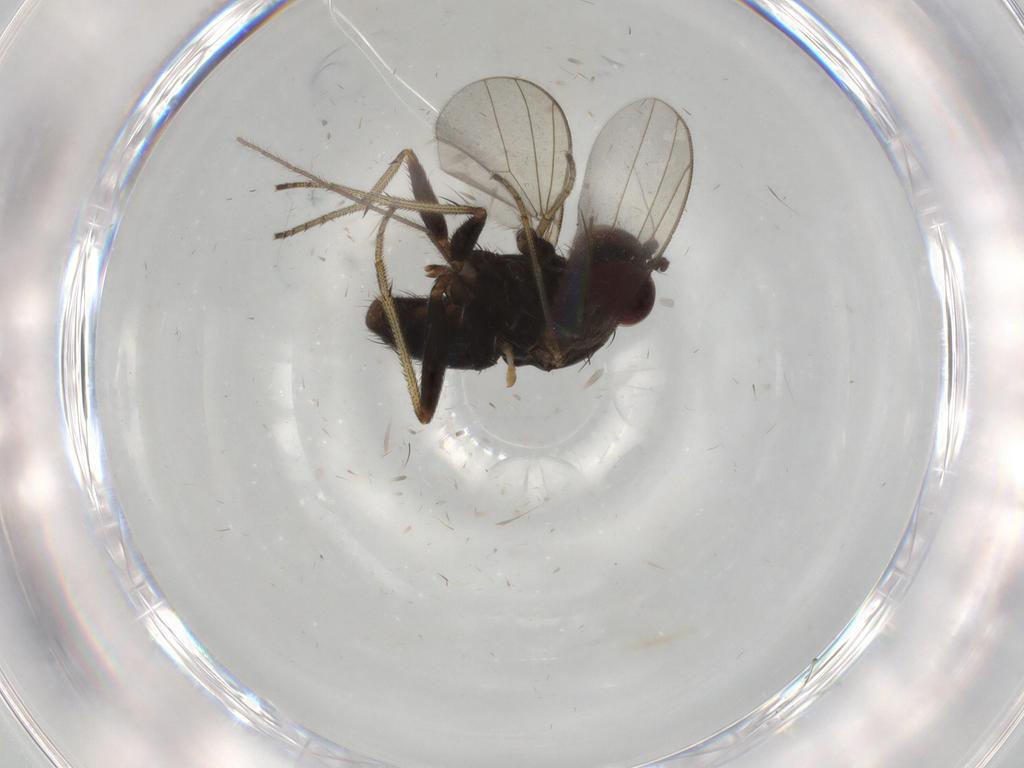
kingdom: Animalia
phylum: Arthropoda
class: Insecta
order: Diptera
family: Dolichopodidae
